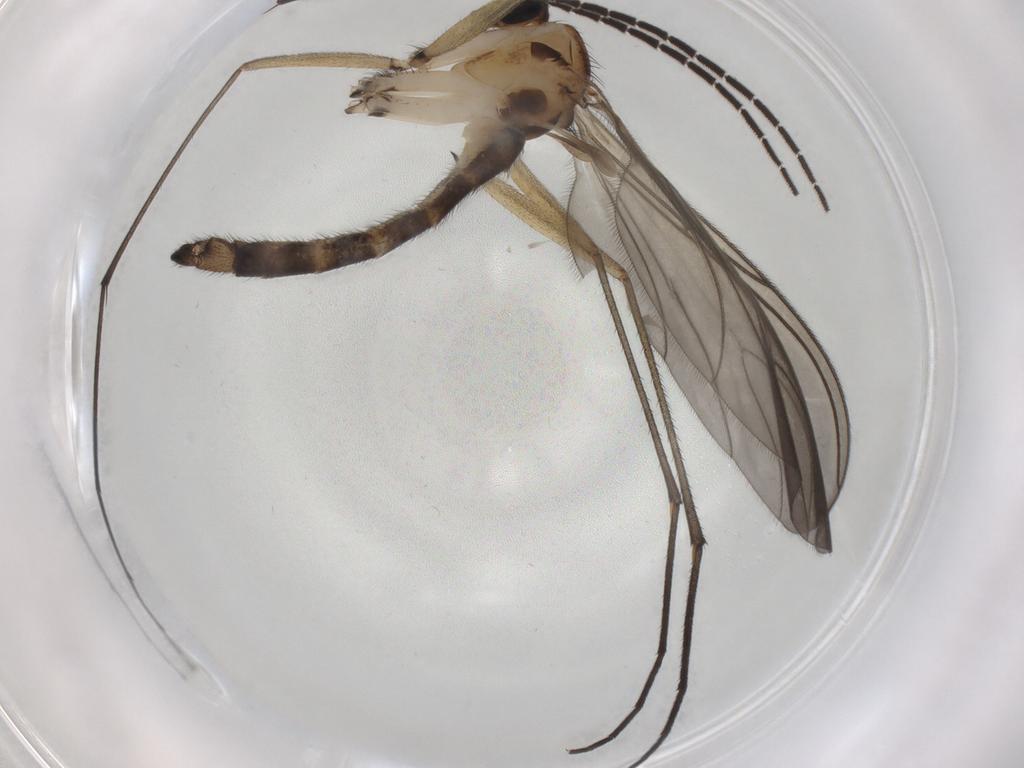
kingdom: Animalia
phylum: Arthropoda
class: Insecta
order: Diptera
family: Sciaridae
